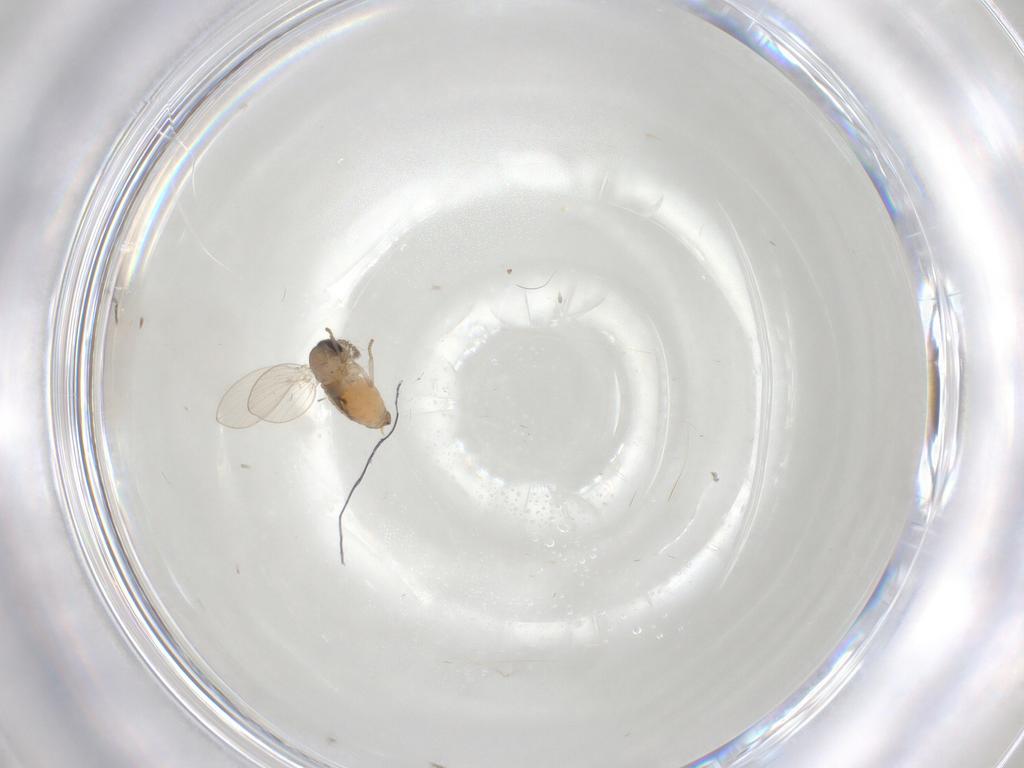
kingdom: Animalia
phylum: Arthropoda
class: Insecta
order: Diptera
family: Psychodidae
